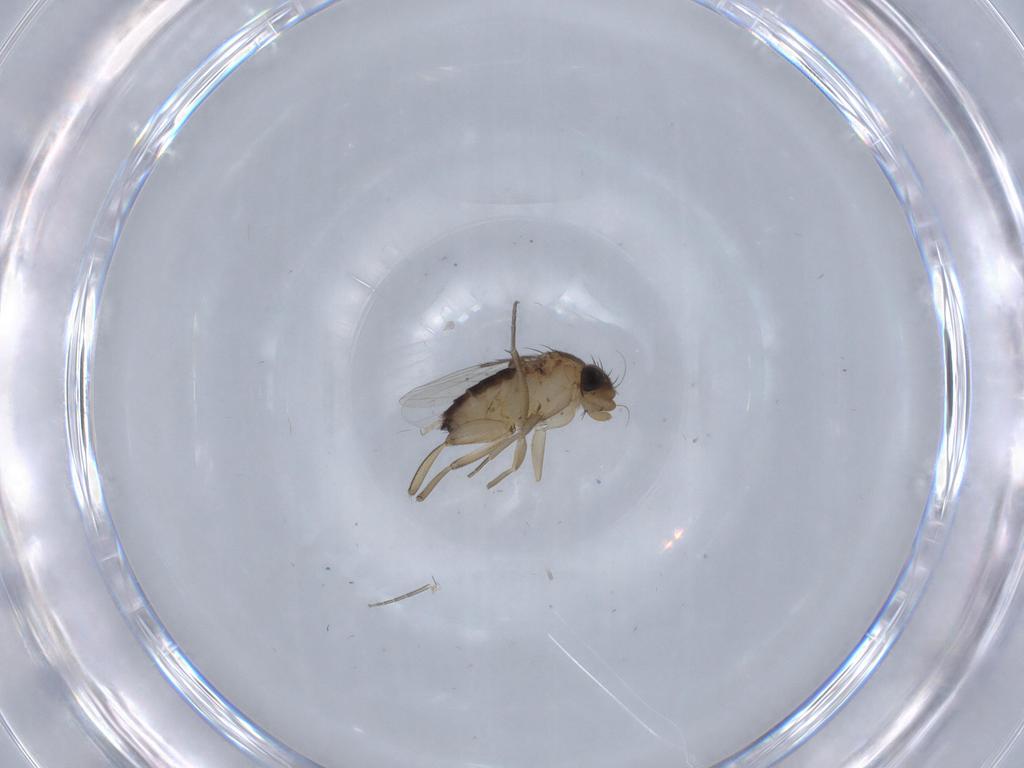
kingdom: Animalia
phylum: Arthropoda
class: Insecta
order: Diptera
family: Sphaeroceridae
